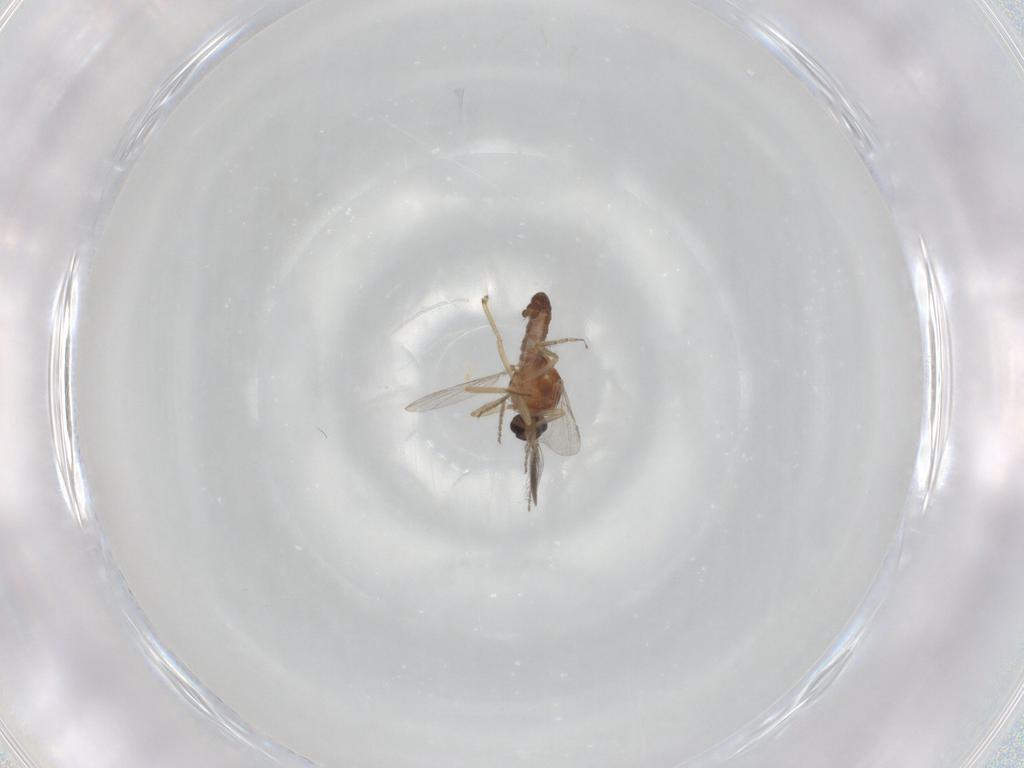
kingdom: Animalia
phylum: Arthropoda
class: Insecta
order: Diptera
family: Ceratopogonidae
